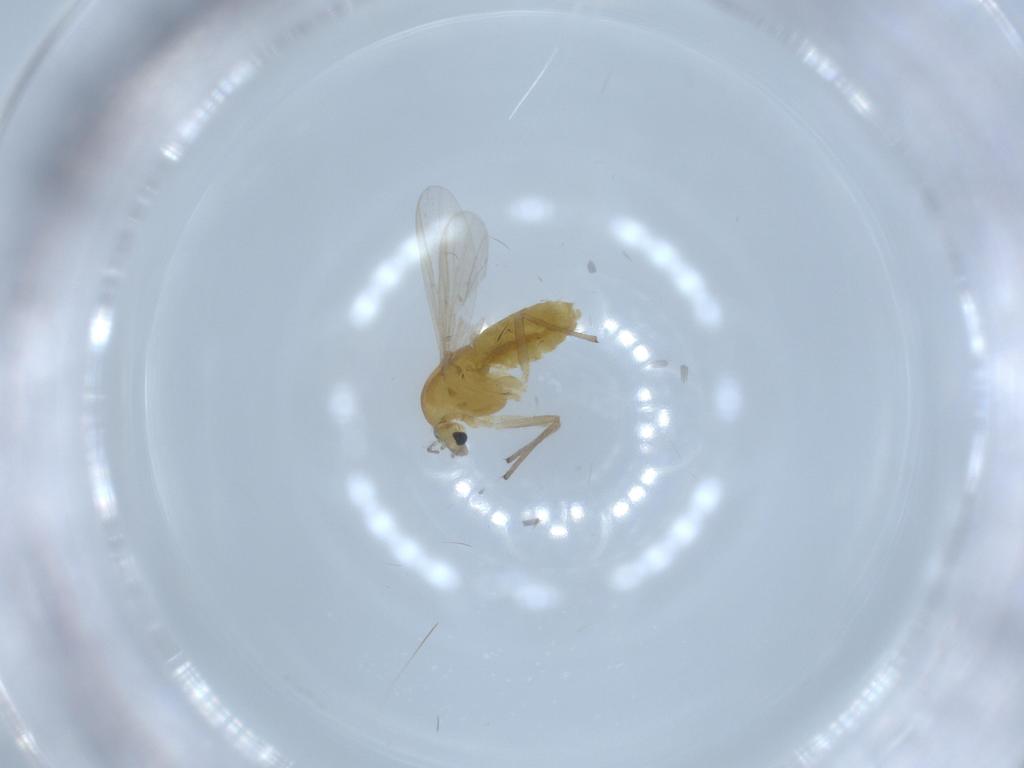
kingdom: Animalia
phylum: Arthropoda
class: Insecta
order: Diptera
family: Chironomidae
